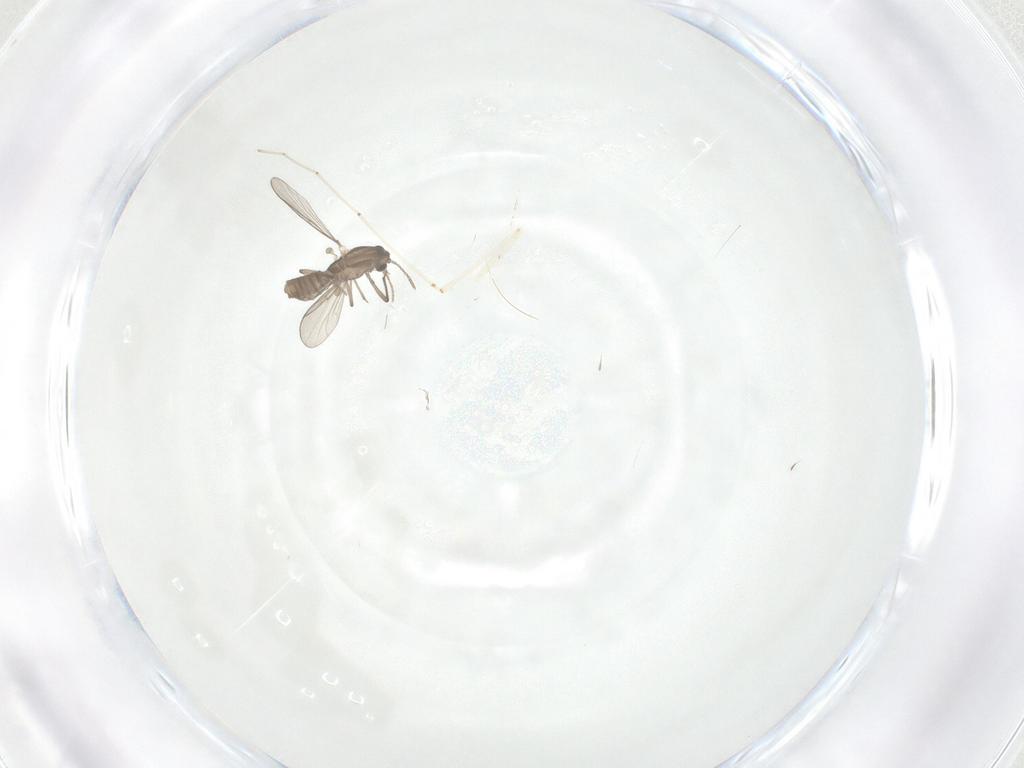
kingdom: Animalia
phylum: Arthropoda
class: Insecta
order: Diptera
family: Chironomidae
